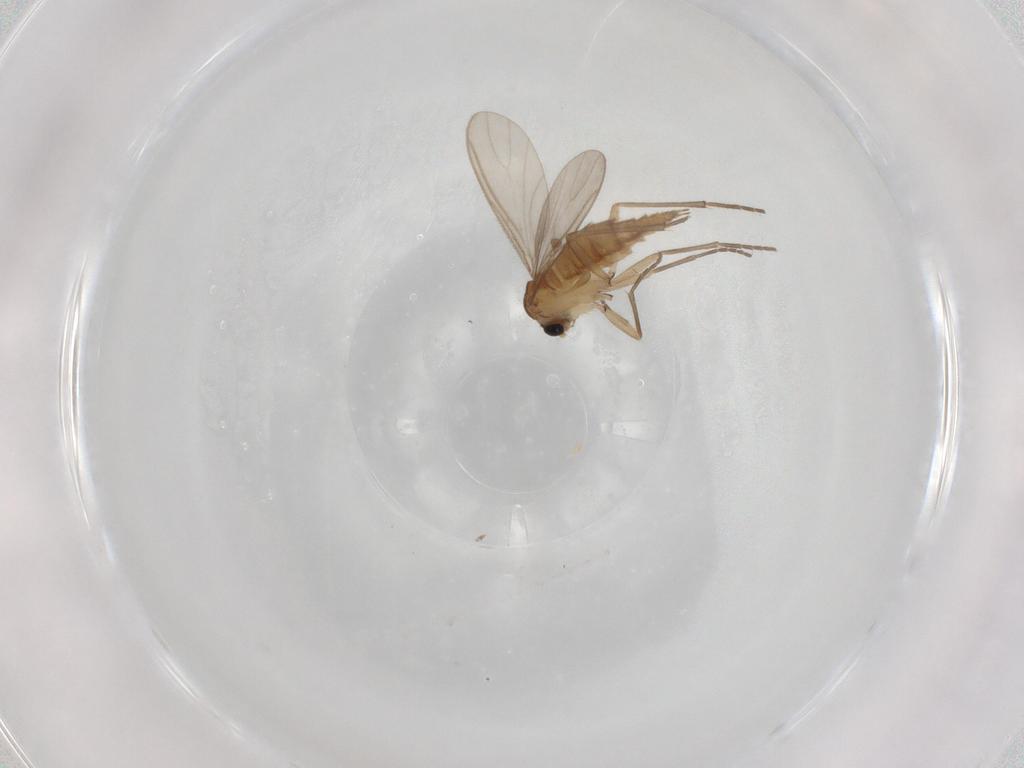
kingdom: Animalia
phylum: Arthropoda
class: Insecta
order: Diptera
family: Sciaridae
